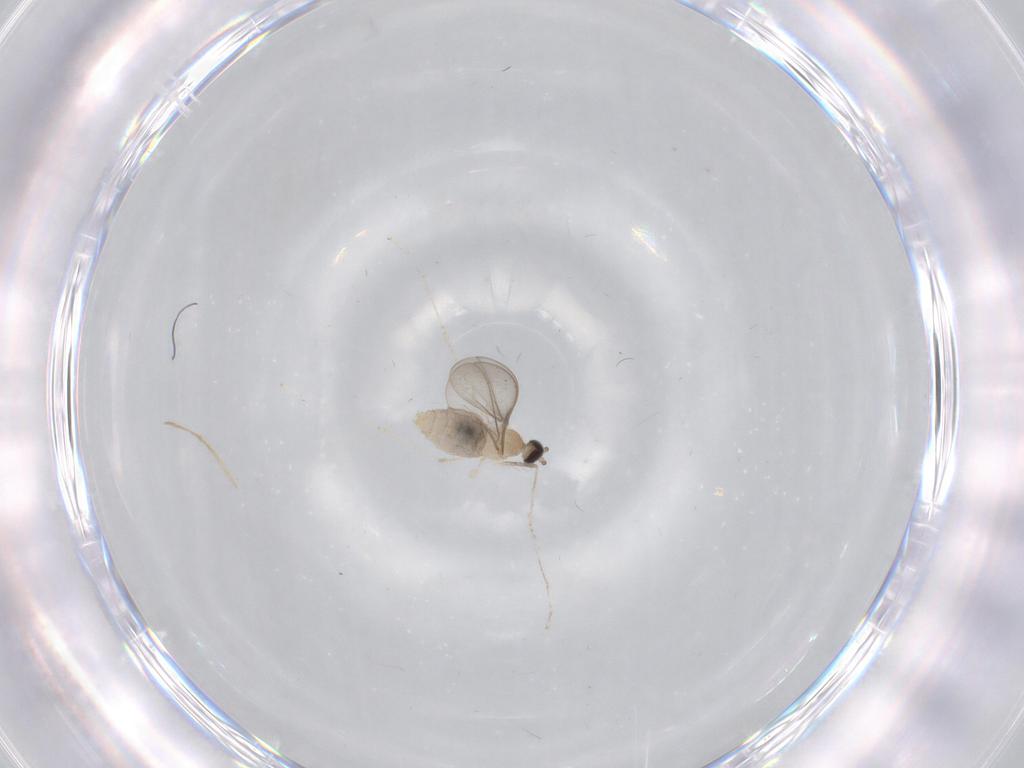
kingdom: Animalia
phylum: Arthropoda
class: Insecta
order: Diptera
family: Cecidomyiidae
